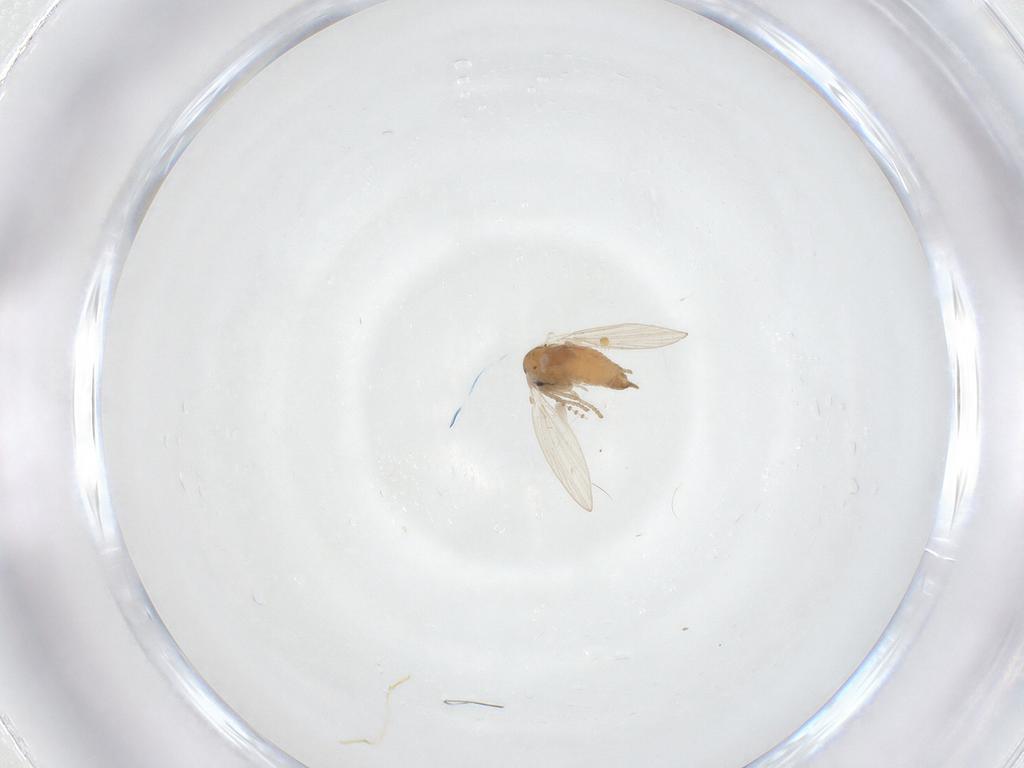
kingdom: Animalia
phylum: Arthropoda
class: Insecta
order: Diptera
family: Psychodidae
